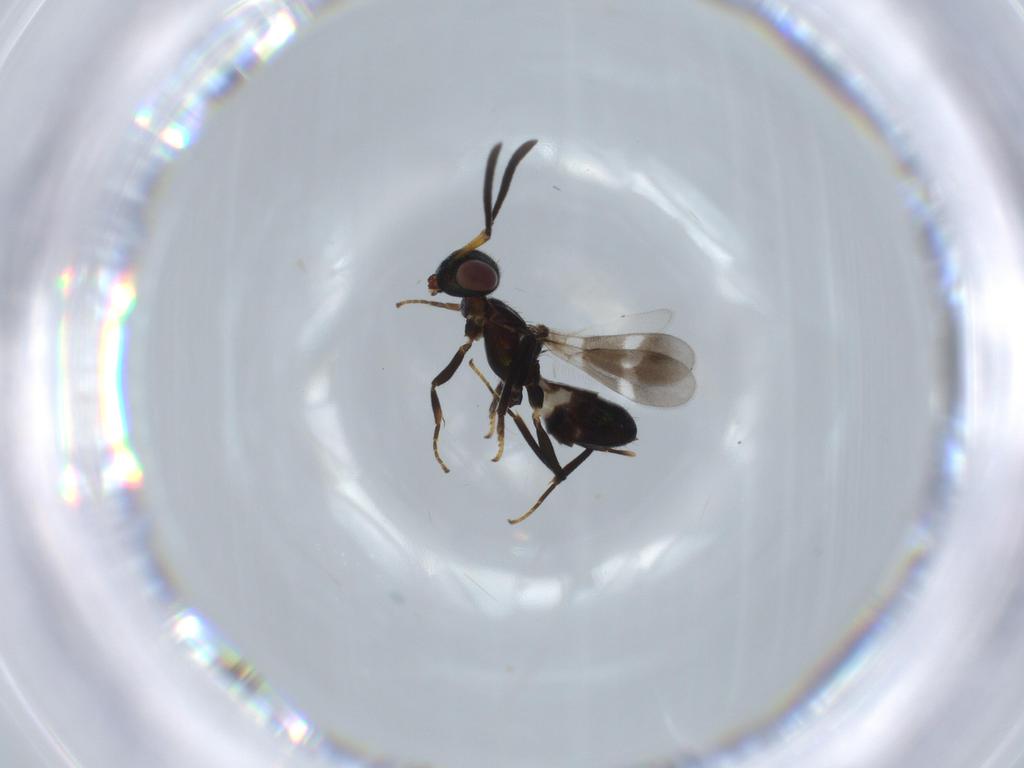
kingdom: Animalia
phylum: Arthropoda
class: Insecta
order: Hymenoptera
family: Eupelmidae
